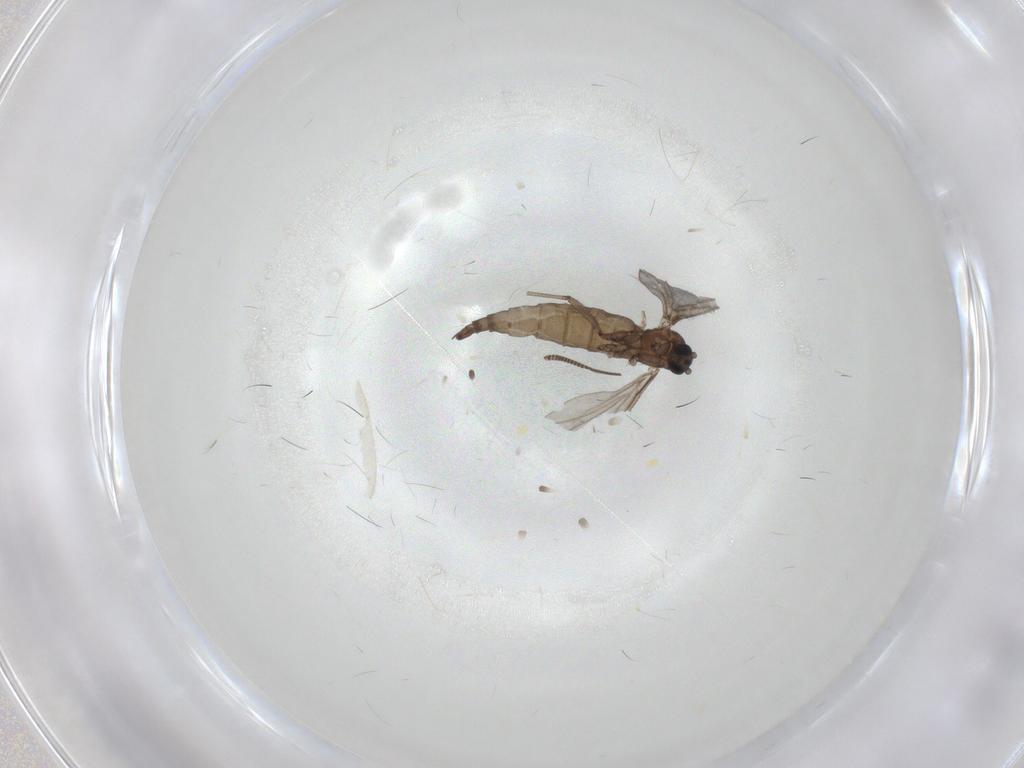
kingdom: Animalia
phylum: Arthropoda
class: Insecta
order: Diptera
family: Sciaridae
